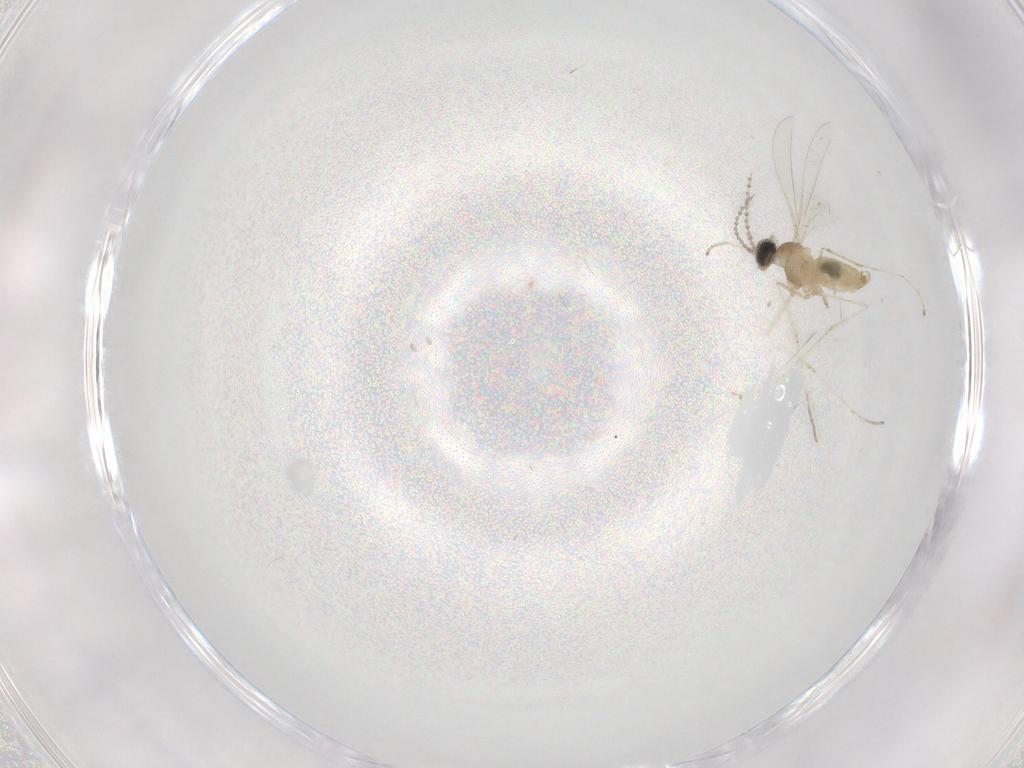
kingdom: Animalia
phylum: Arthropoda
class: Insecta
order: Diptera
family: Cecidomyiidae
